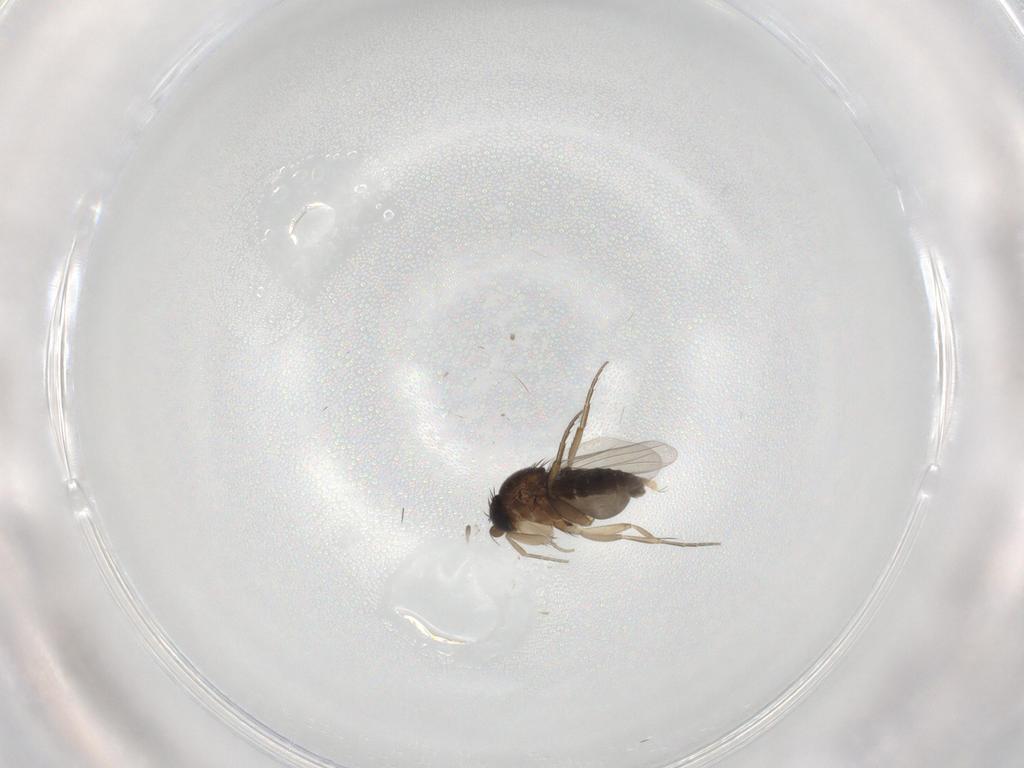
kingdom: Animalia
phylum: Arthropoda
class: Insecta
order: Diptera
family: Phoridae
